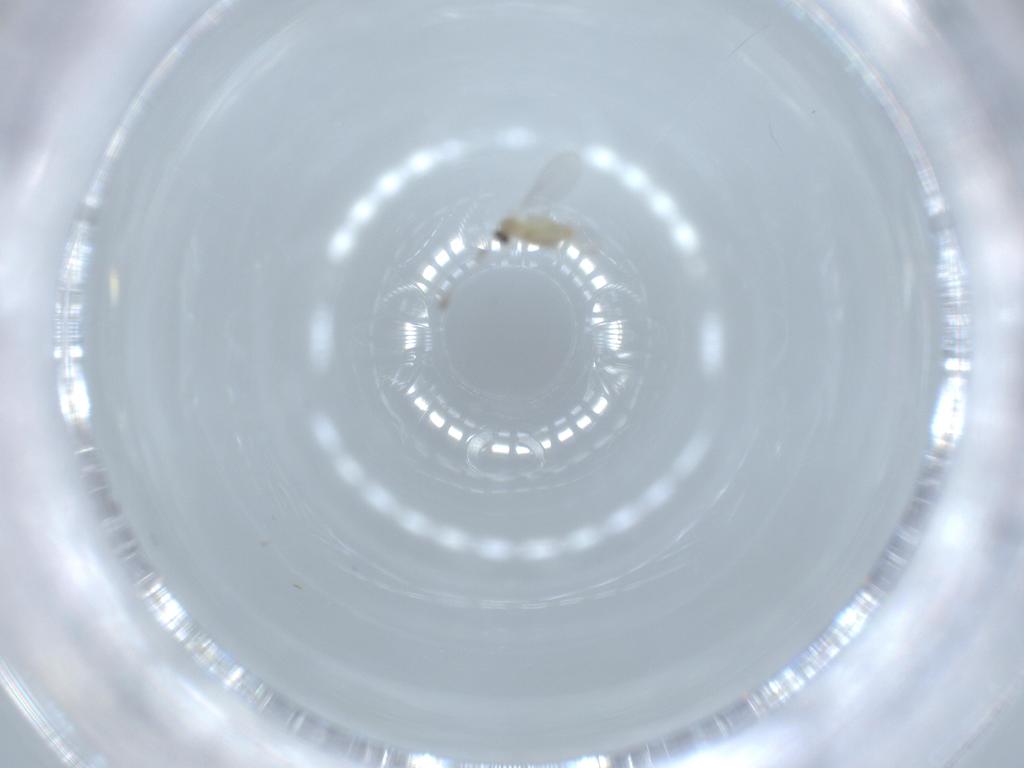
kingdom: Animalia
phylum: Arthropoda
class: Insecta
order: Diptera
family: Cecidomyiidae
